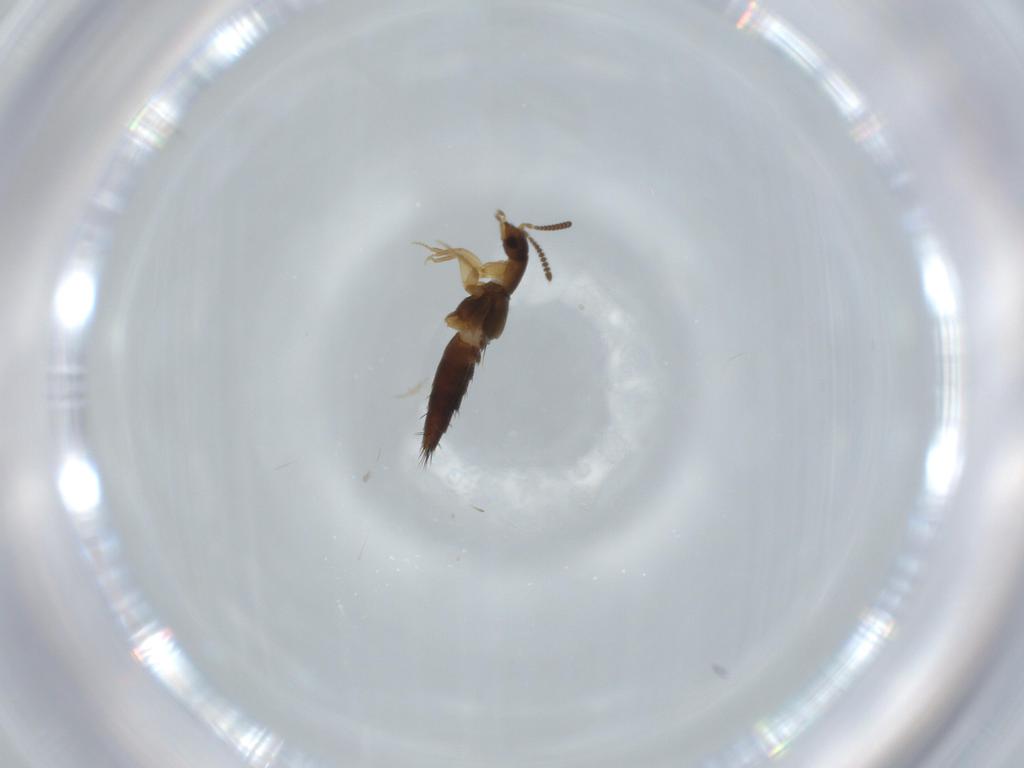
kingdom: Animalia
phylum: Arthropoda
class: Insecta
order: Coleoptera
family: Staphylinidae
